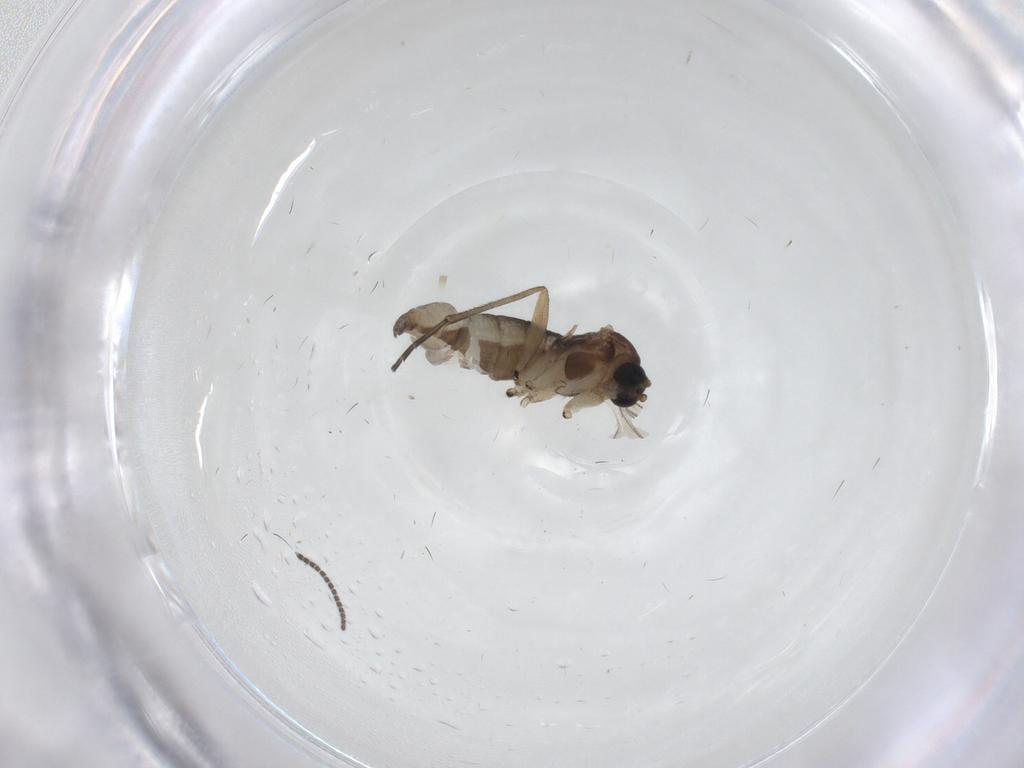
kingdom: Animalia
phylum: Arthropoda
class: Insecta
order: Diptera
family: Sciaridae
